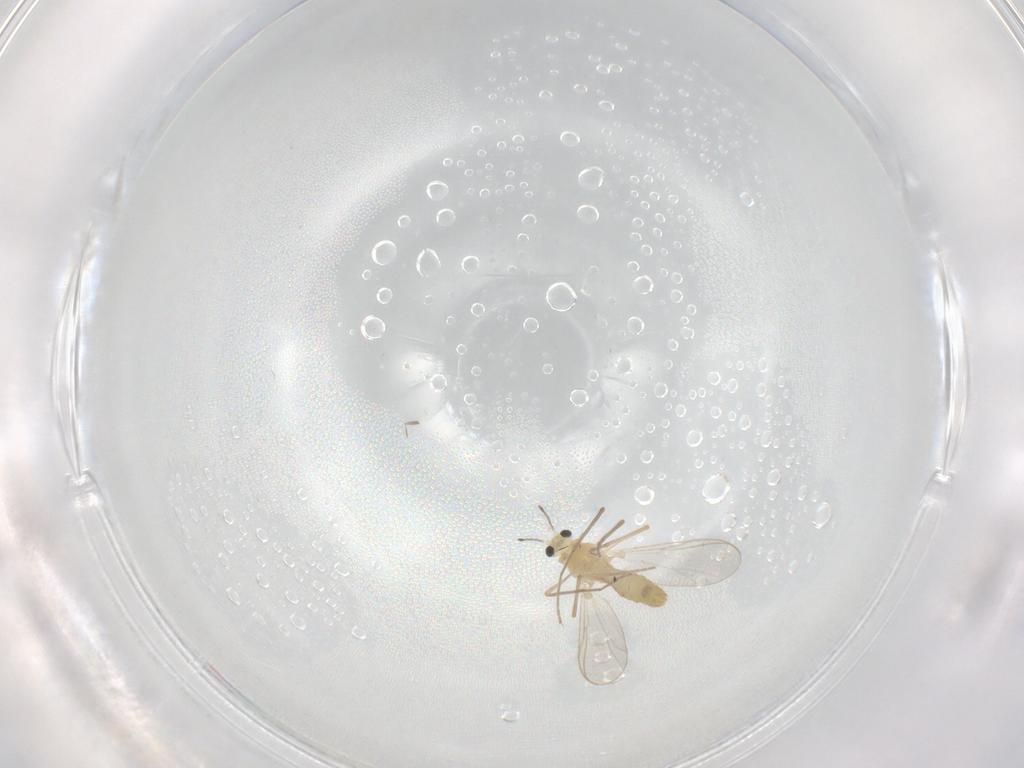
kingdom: Animalia
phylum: Arthropoda
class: Insecta
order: Diptera
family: Chironomidae
